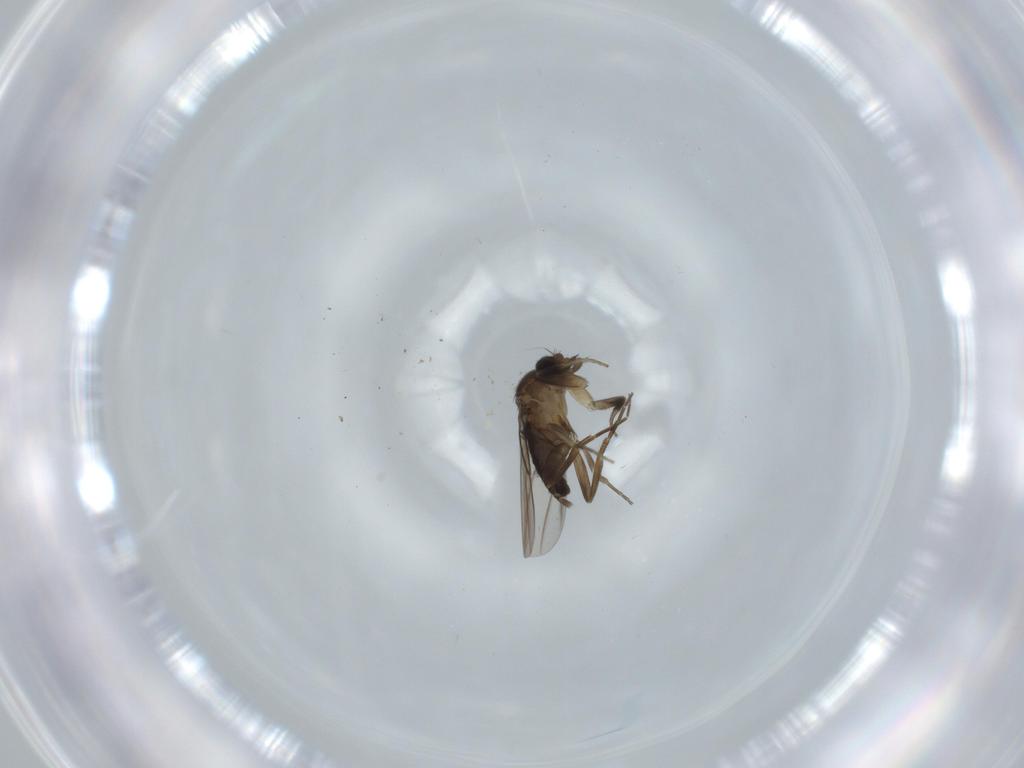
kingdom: Animalia
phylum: Arthropoda
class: Insecta
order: Diptera
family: Phoridae
